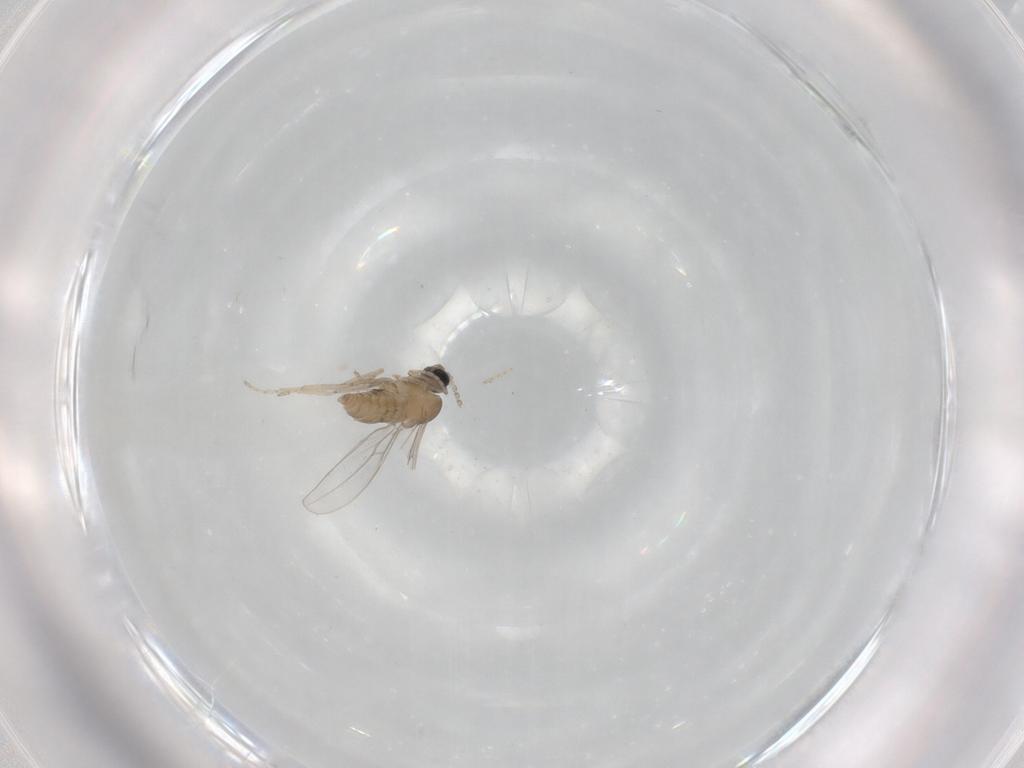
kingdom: Animalia
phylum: Arthropoda
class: Insecta
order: Diptera
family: Cecidomyiidae
